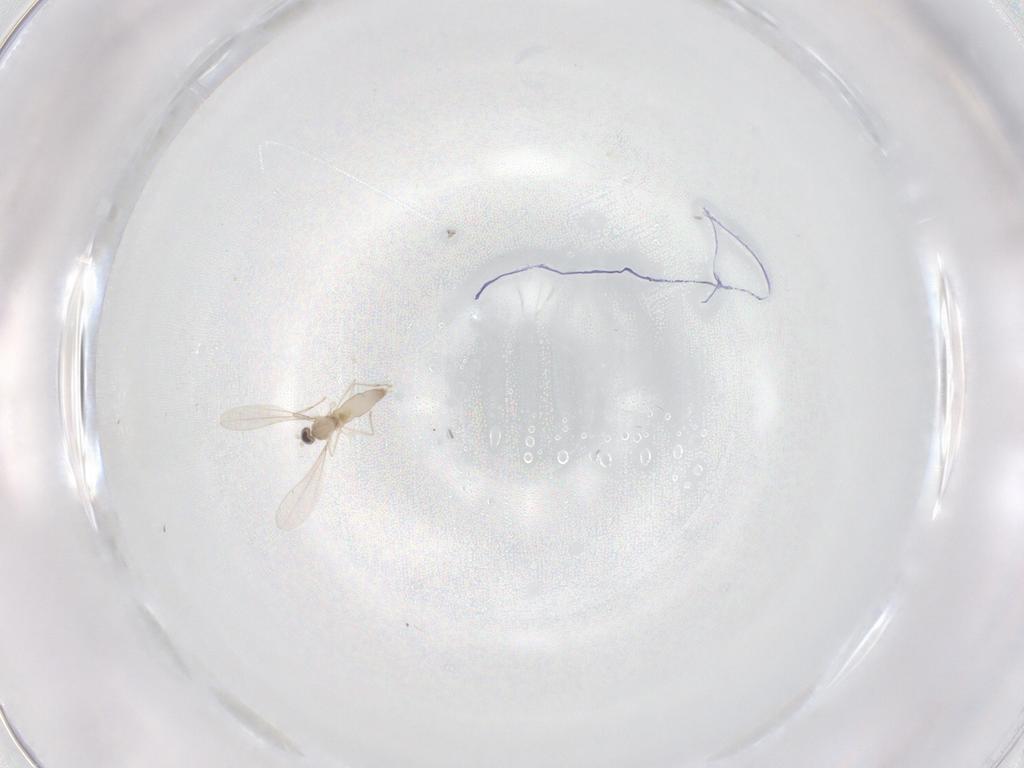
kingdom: Animalia
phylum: Arthropoda
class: Insecta
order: Diptera
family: Cecidomyiidae
